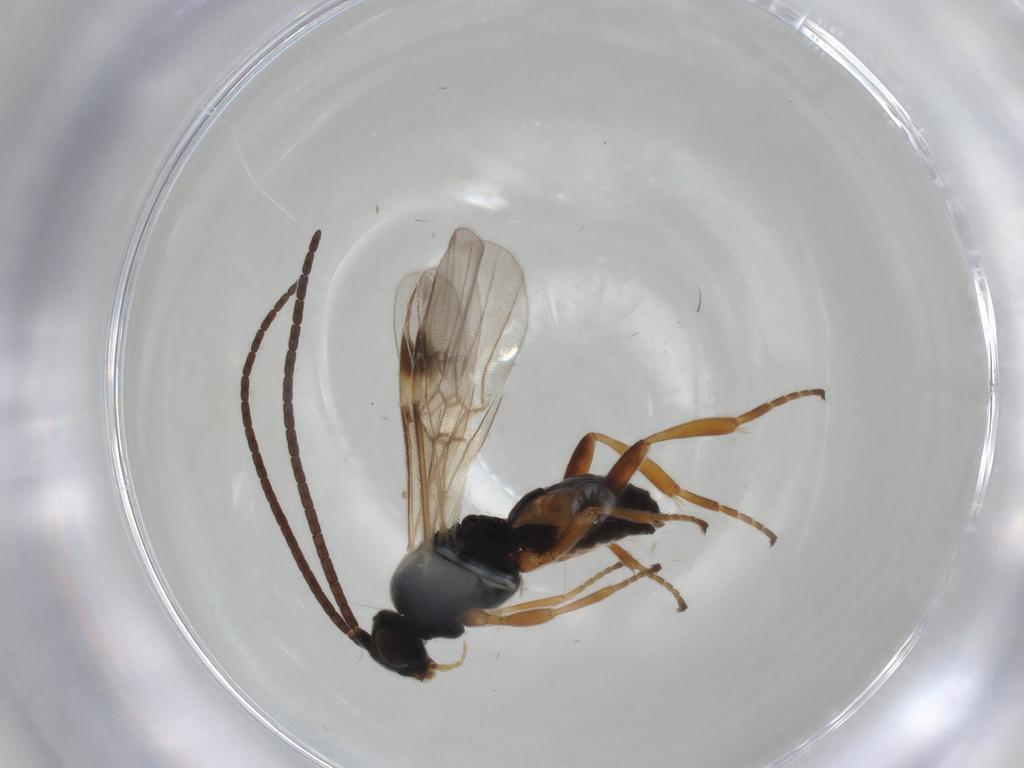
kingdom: Animalia
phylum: Arthropoda
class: Insecta
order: Hymenoptera
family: Braconidae
